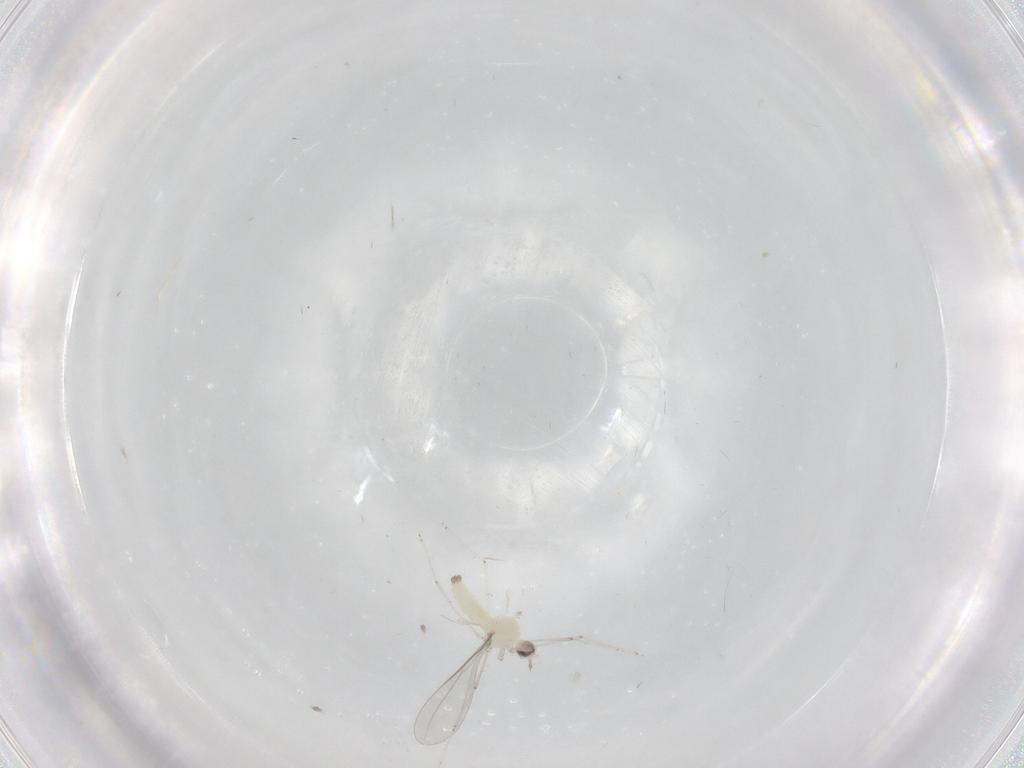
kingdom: Animalia
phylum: Arthropoda
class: Insecta
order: Diptera
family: Cecidomyiidae
